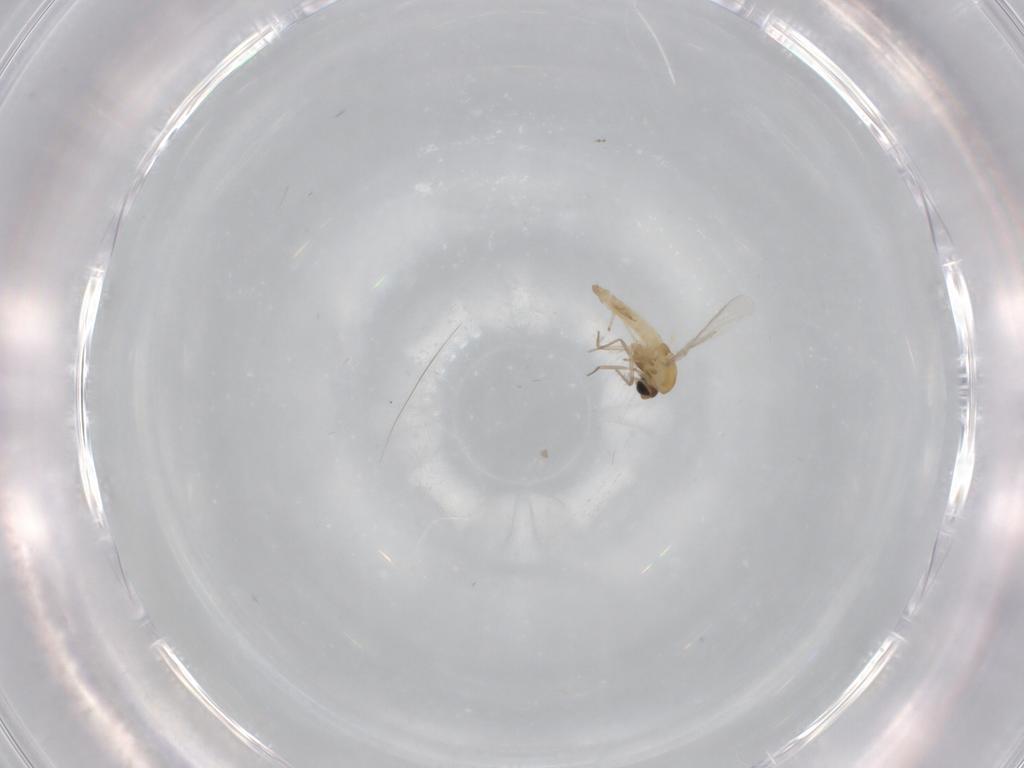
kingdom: Animalia
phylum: Arthropoda
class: Insecta
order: Diptera
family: Chironomidae
